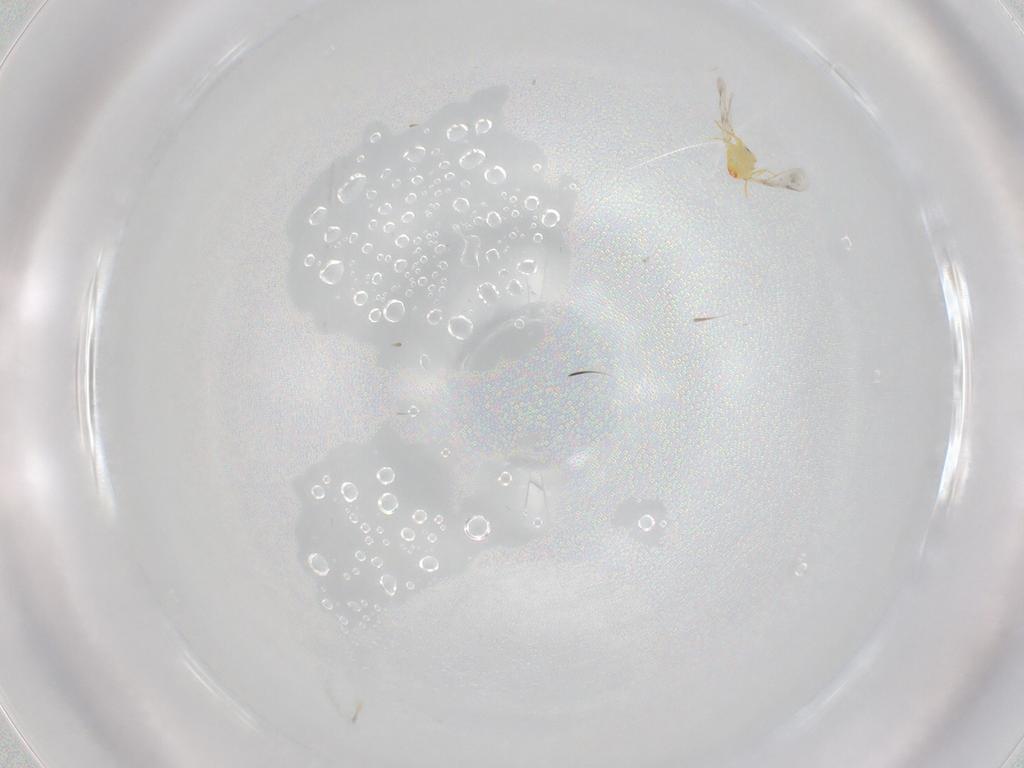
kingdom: Animalia
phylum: Arthropoda
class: Insecta
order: Hemiptera
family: Aleyrodidae
